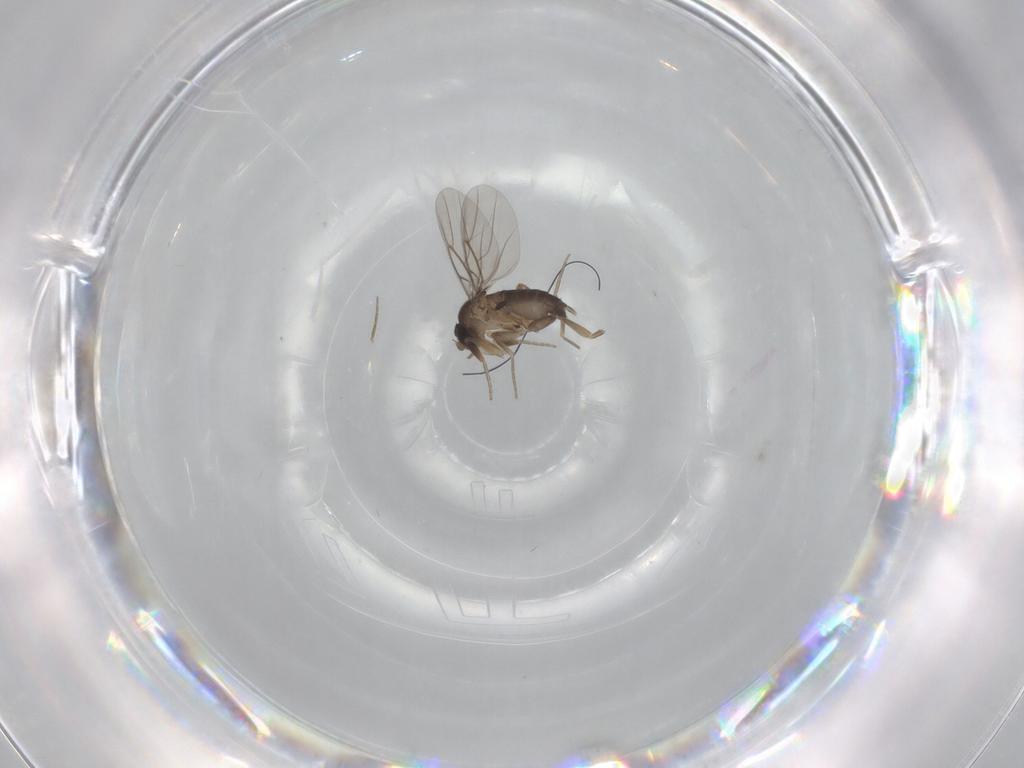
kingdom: Animalia
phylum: Arthropoda
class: Insecta
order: Diptera
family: Phoridae
